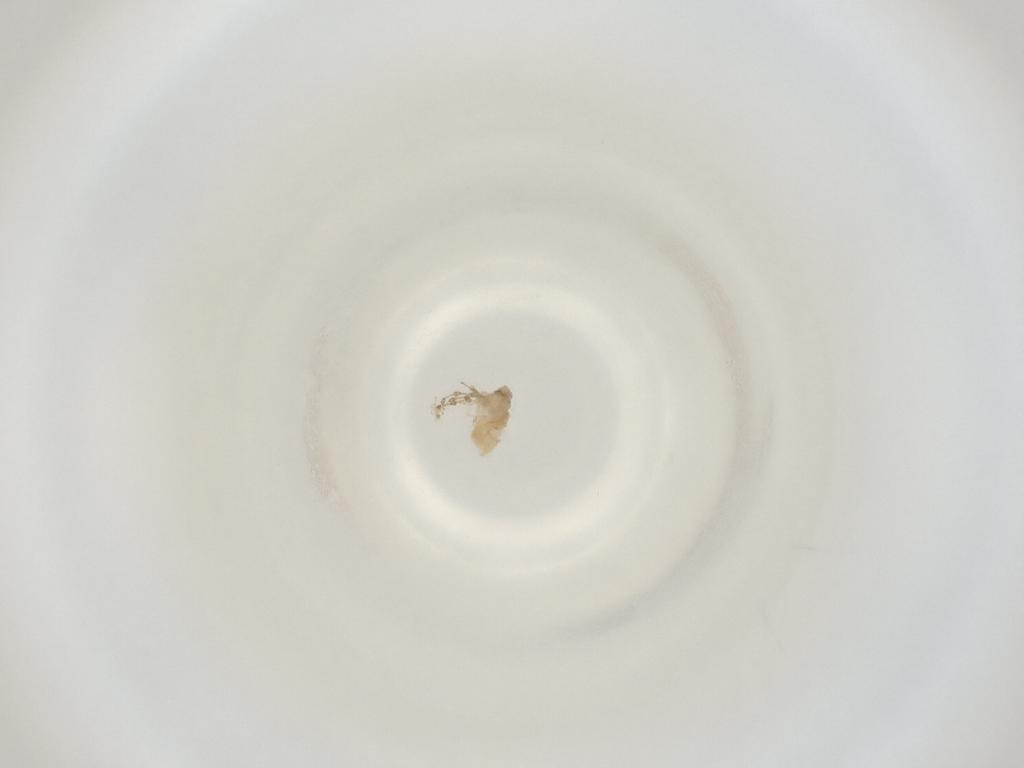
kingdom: Animalia
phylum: Arthropoda
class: Insecta
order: Diptera
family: Cecidomyiidae
